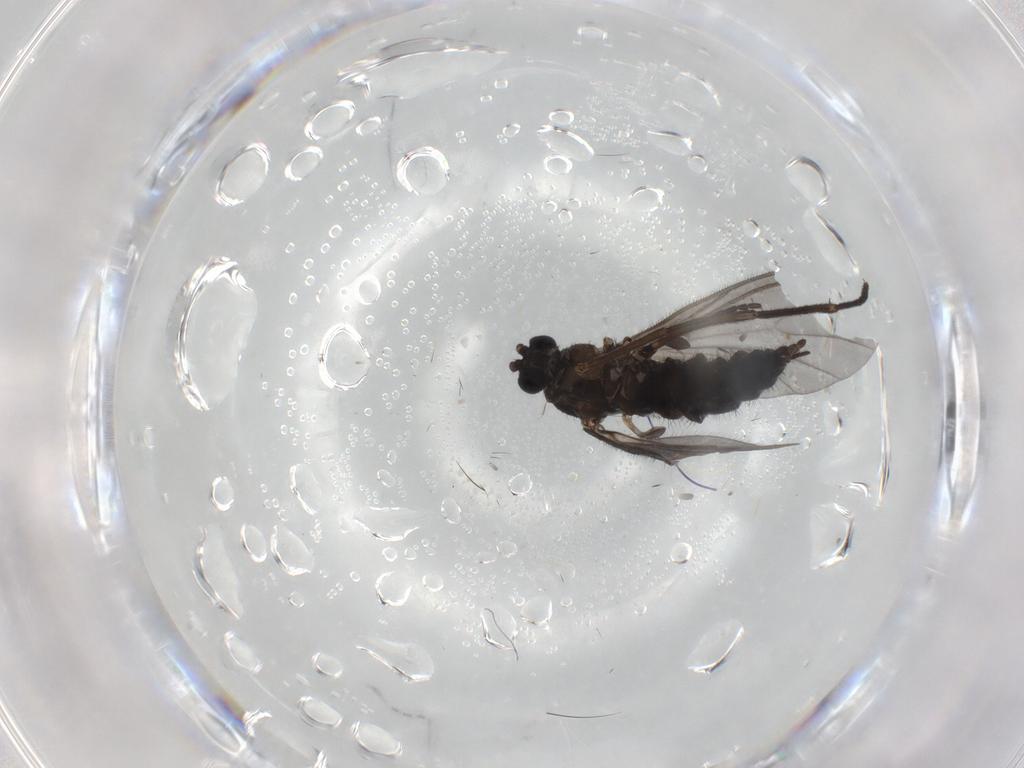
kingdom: Animalia
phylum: Arthropoda
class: Insecta
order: Diptera
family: Sciaridae
